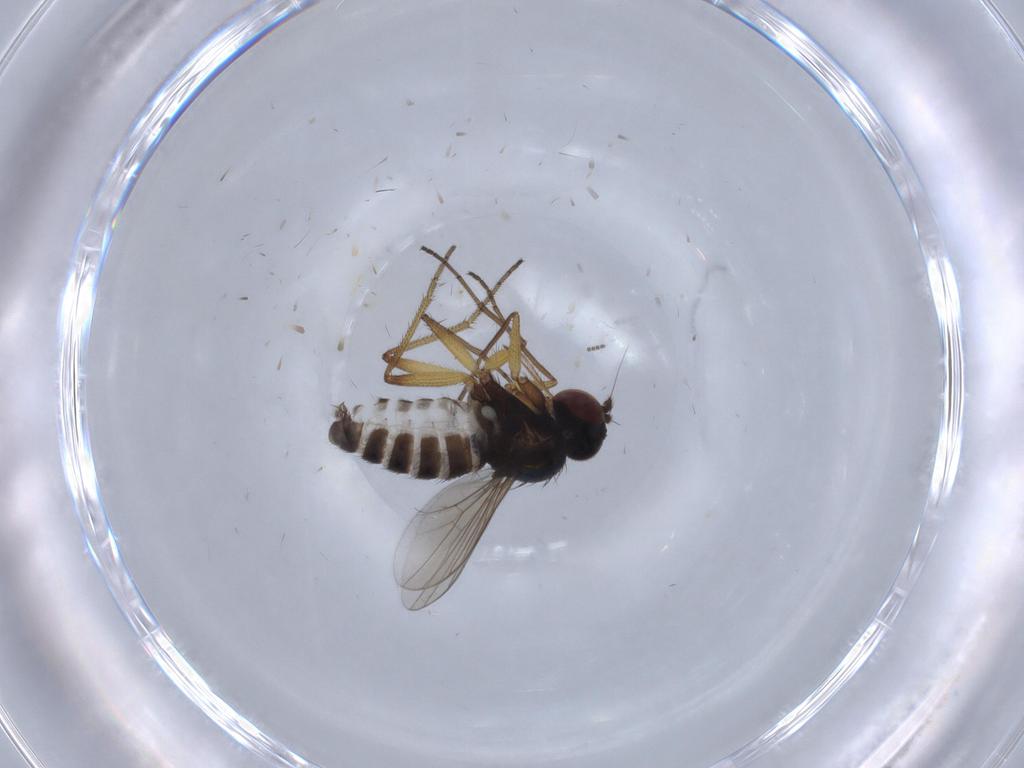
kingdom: Animalia
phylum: Arthropoda
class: Insecta
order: Diptera
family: Dolichopodidae
